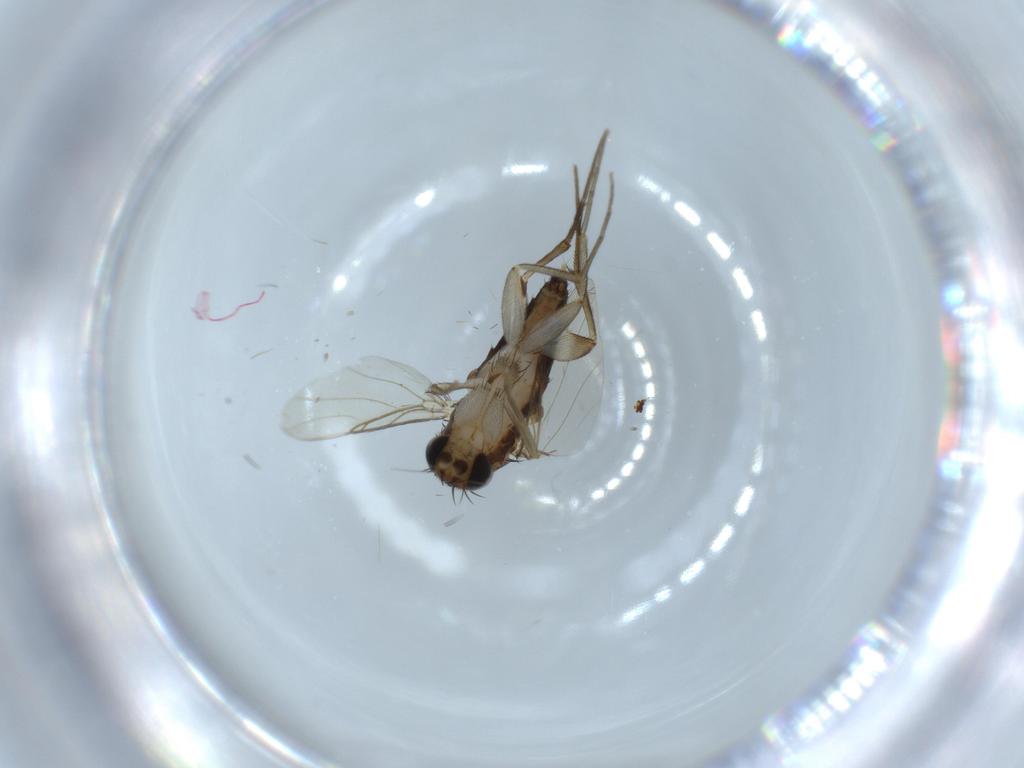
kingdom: Animalia
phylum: Arthropoda
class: Insecta
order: Diptera
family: Phoridae
